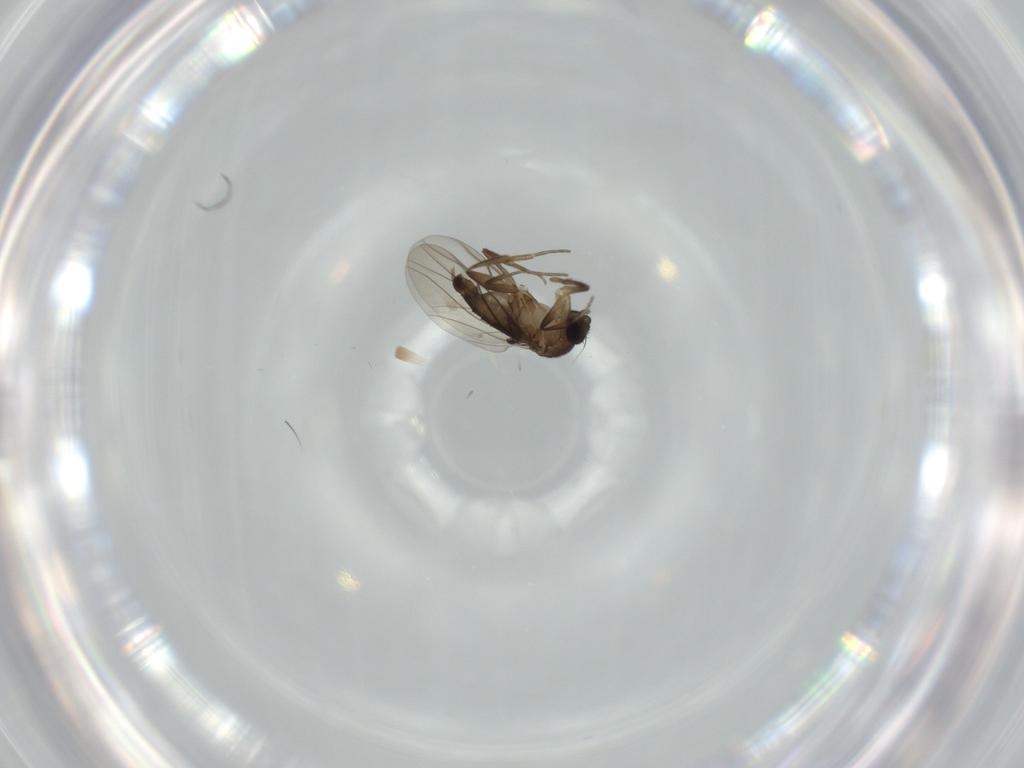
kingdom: Animalia
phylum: Arthropoda
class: Insecta
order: Diptera
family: Phoridae
